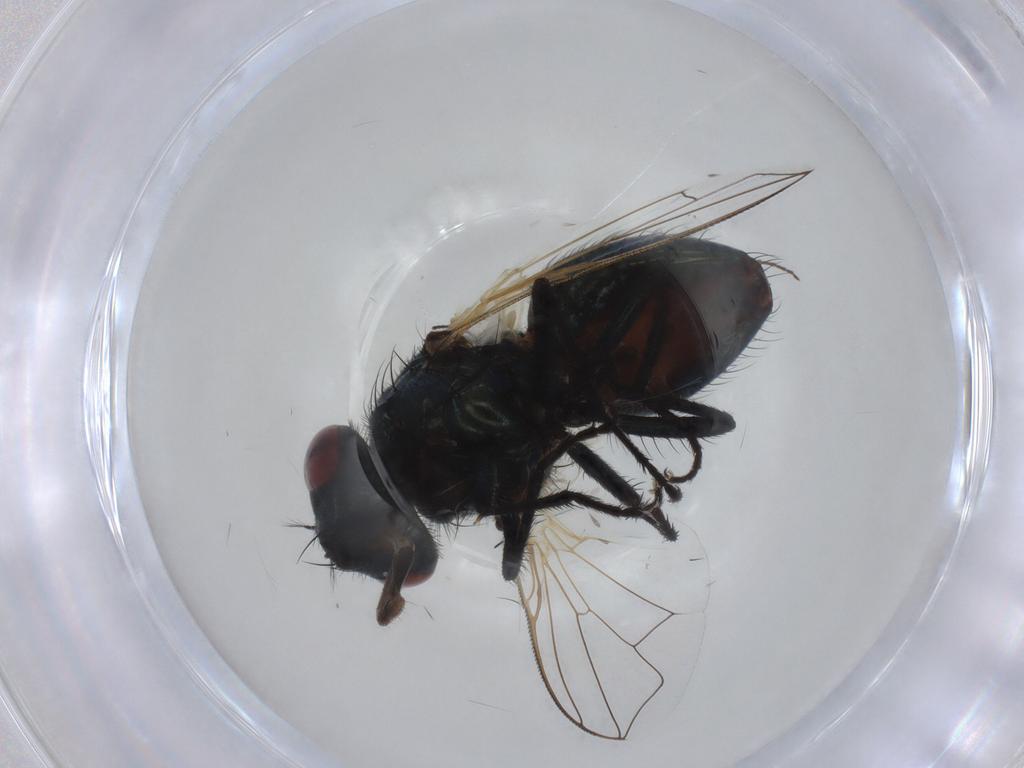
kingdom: Animalia
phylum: Arthropoda
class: Insecta
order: Diptera
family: Muscidae
